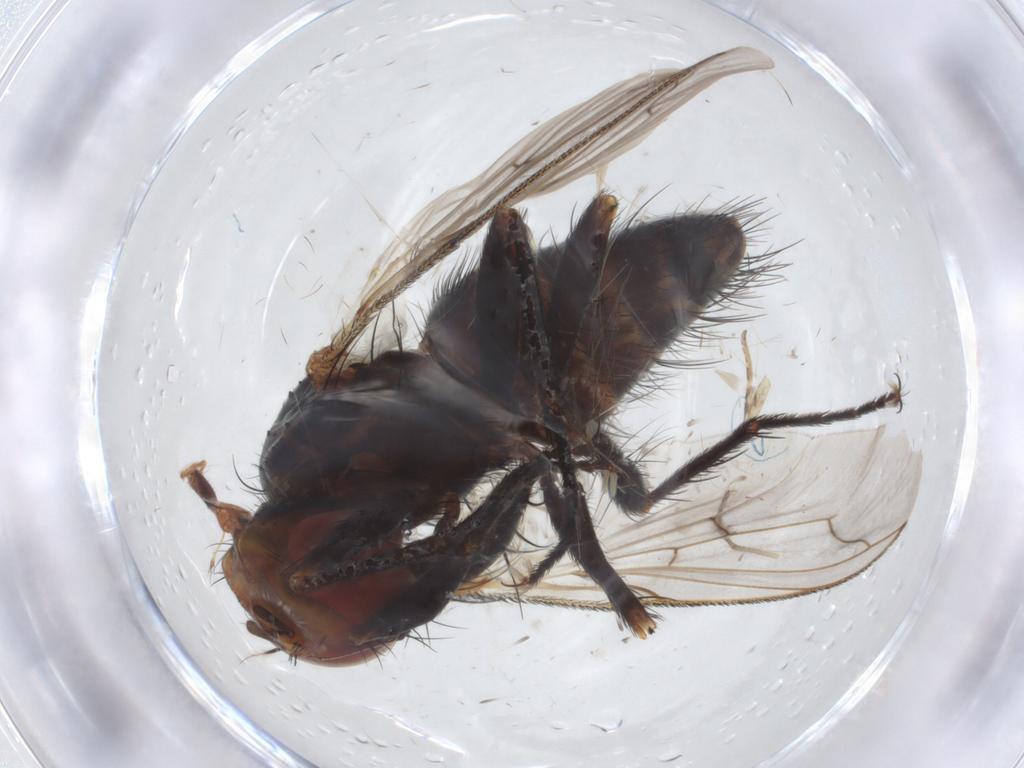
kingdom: Animalia
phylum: Arthropoda
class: Insecta
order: Diptera
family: Tachinidae
